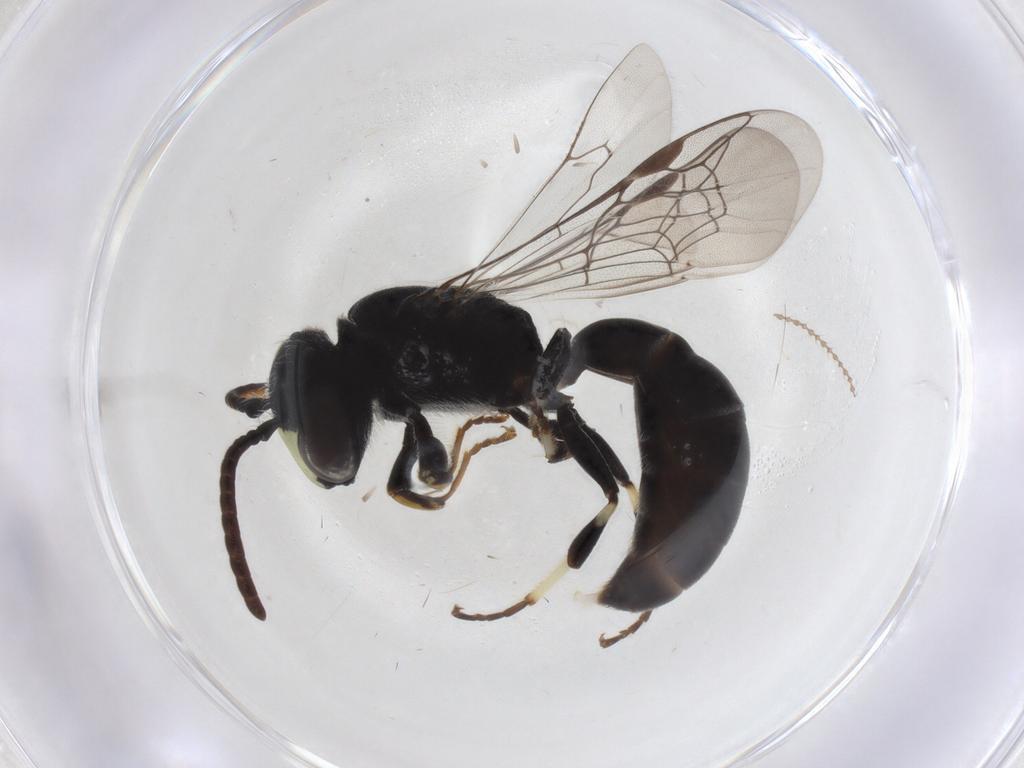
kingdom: Animalia
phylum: Arthropoda
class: Insecta
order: Hymenoptera
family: Colletidae
